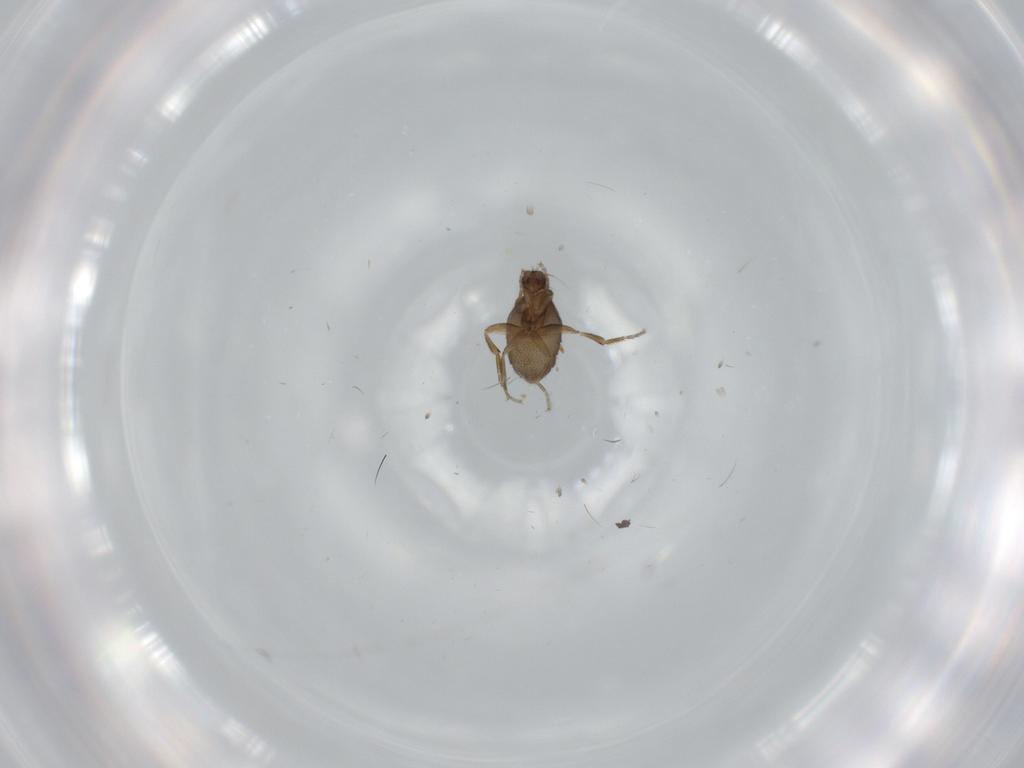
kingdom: Animalia
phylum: Arthropoda
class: Insecta
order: Diptera
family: Phoridae
